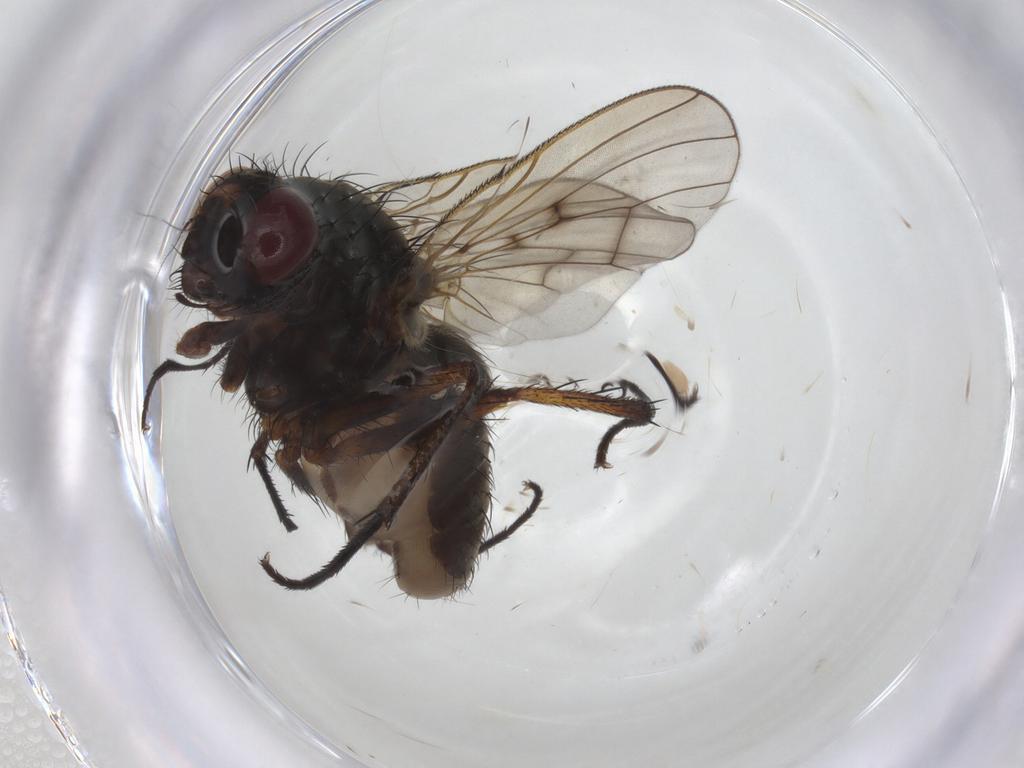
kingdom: Animalia
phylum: Arthropoda
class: Insecta
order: Diptera
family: Anthomyiidae
